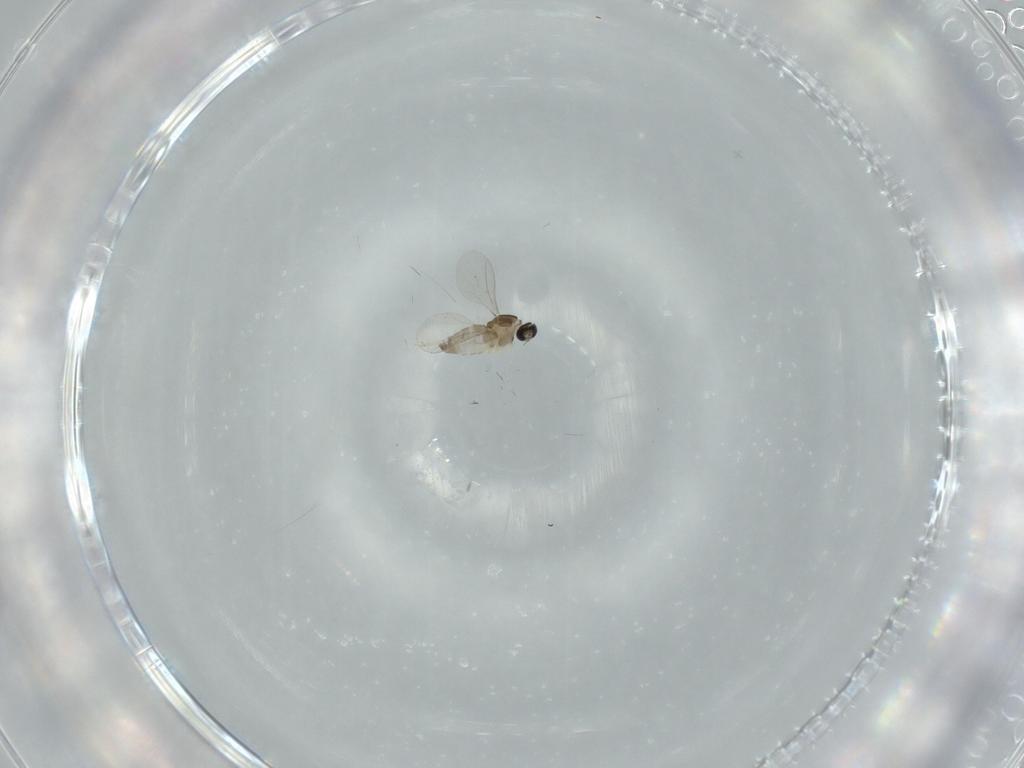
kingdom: Animalia
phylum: Arthropoda
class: Insecta
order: Diptera
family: Cecidomyiidae
